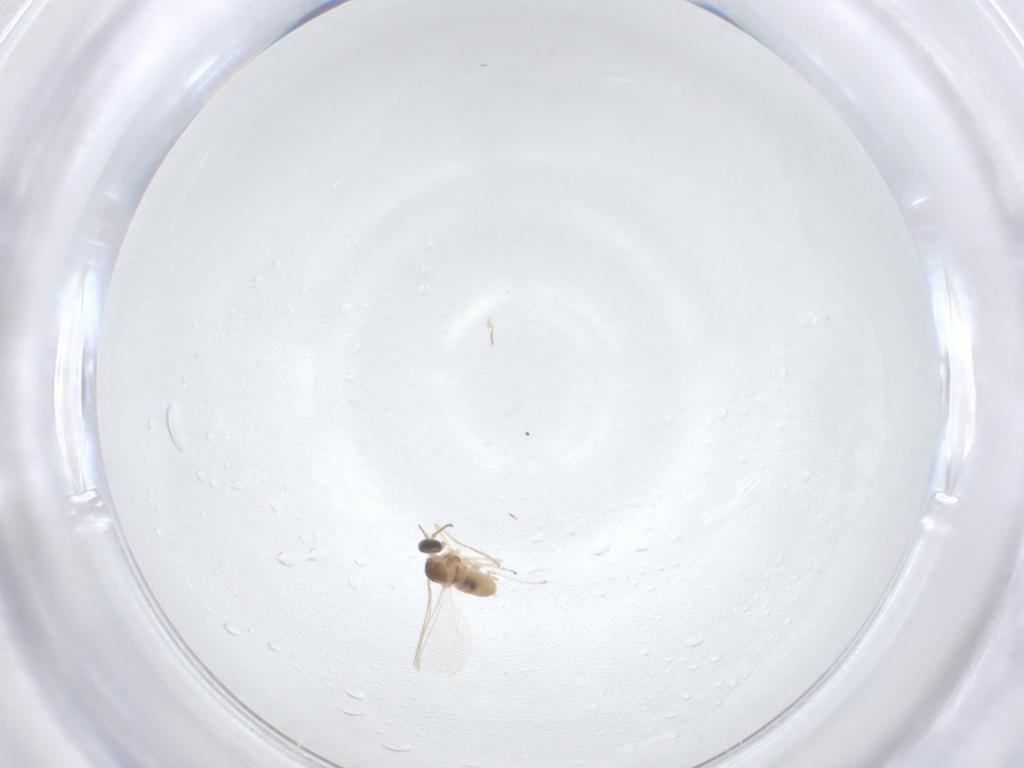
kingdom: Animalia
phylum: Arthropoda
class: Insecta
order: Diptera
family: Cecidomyiidae
